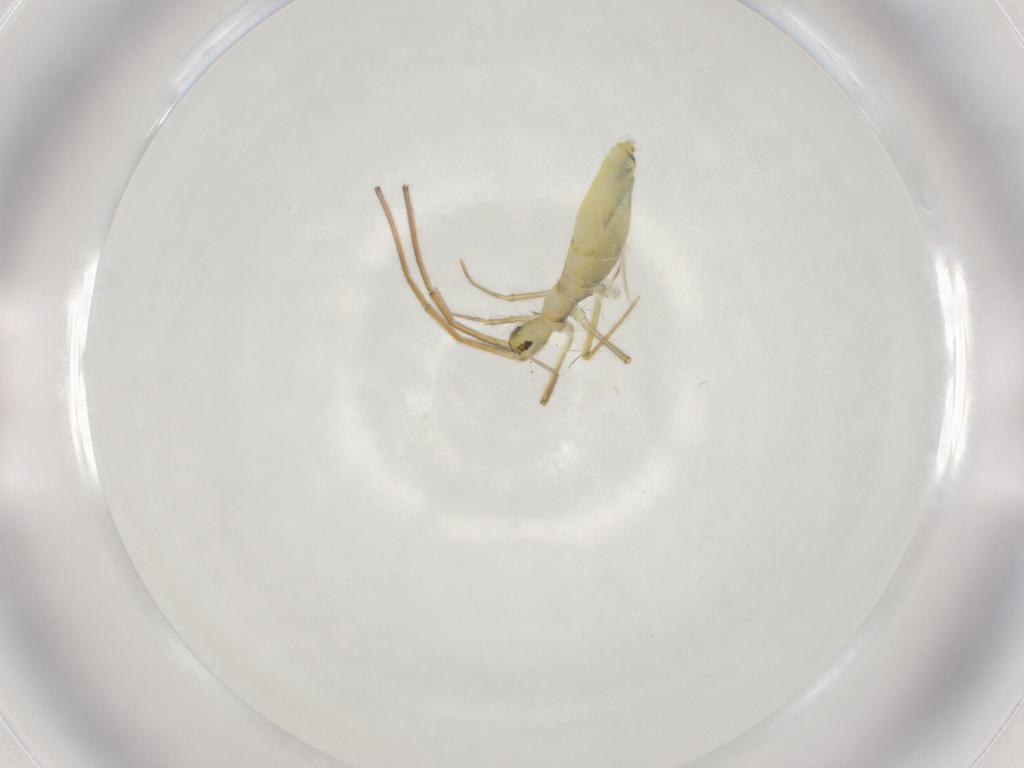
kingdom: Animalia
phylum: Arthropoda
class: Collembola
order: Entomobryomorpha
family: Entomobryidae
